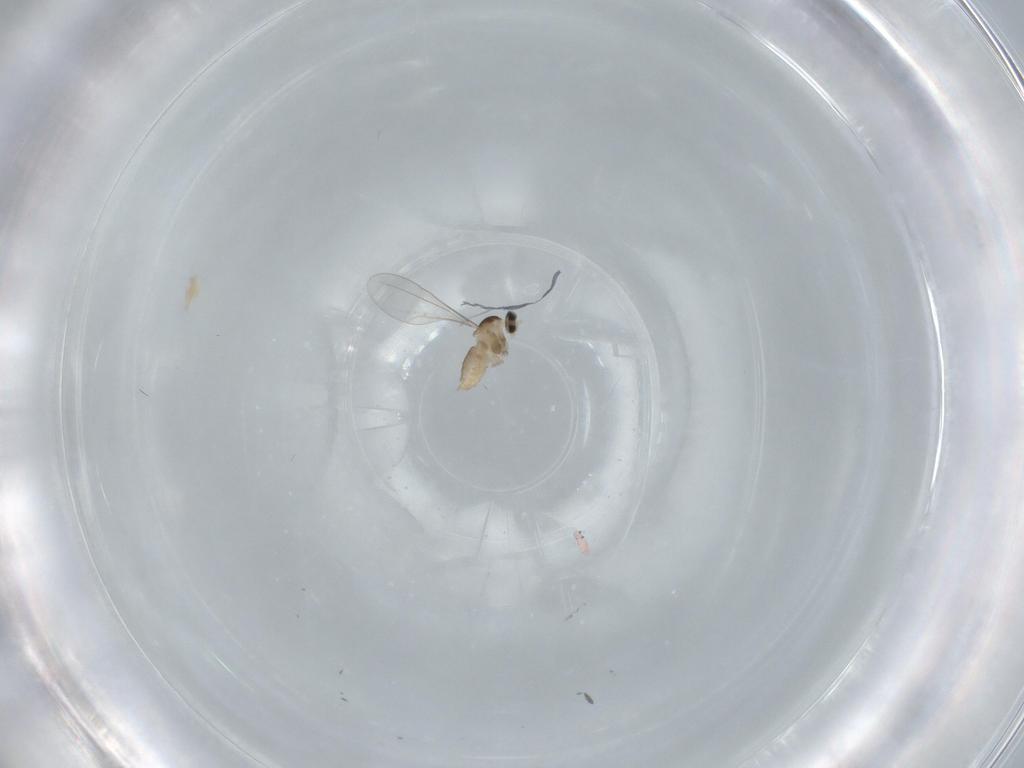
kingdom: Animalia
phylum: Arthropoda
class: Insecta
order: Diptera
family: Cecidomyiidae
